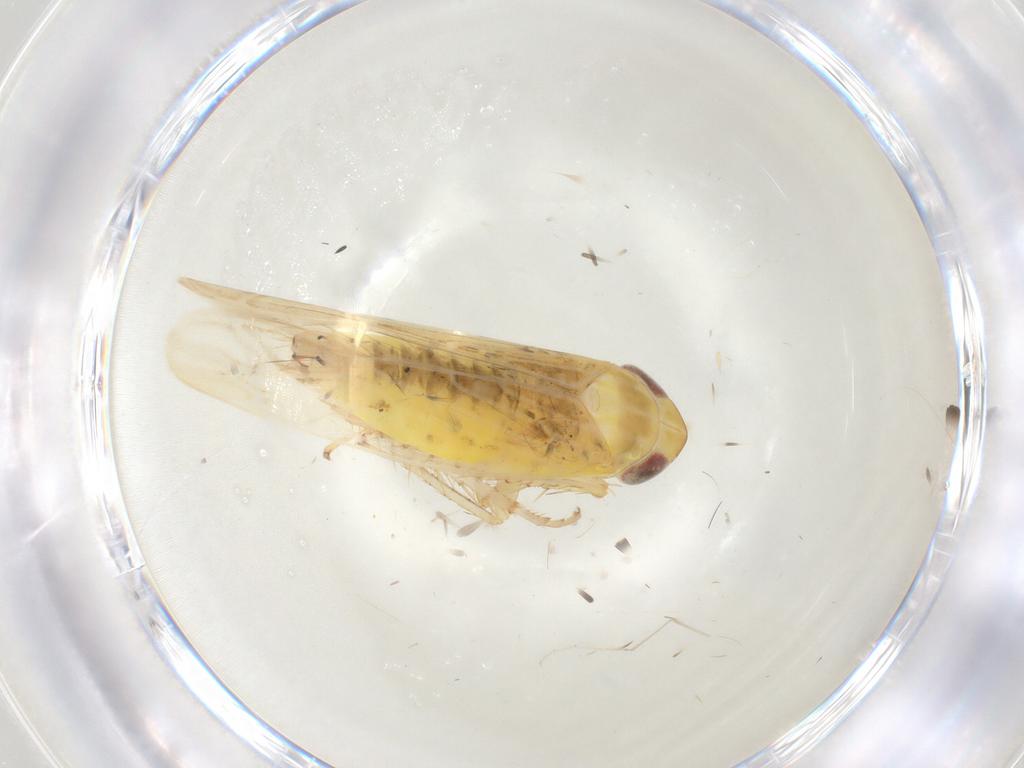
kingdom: Animalia
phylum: Arthropoda
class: Insecta
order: Hemiptera
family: Cicadellidae
